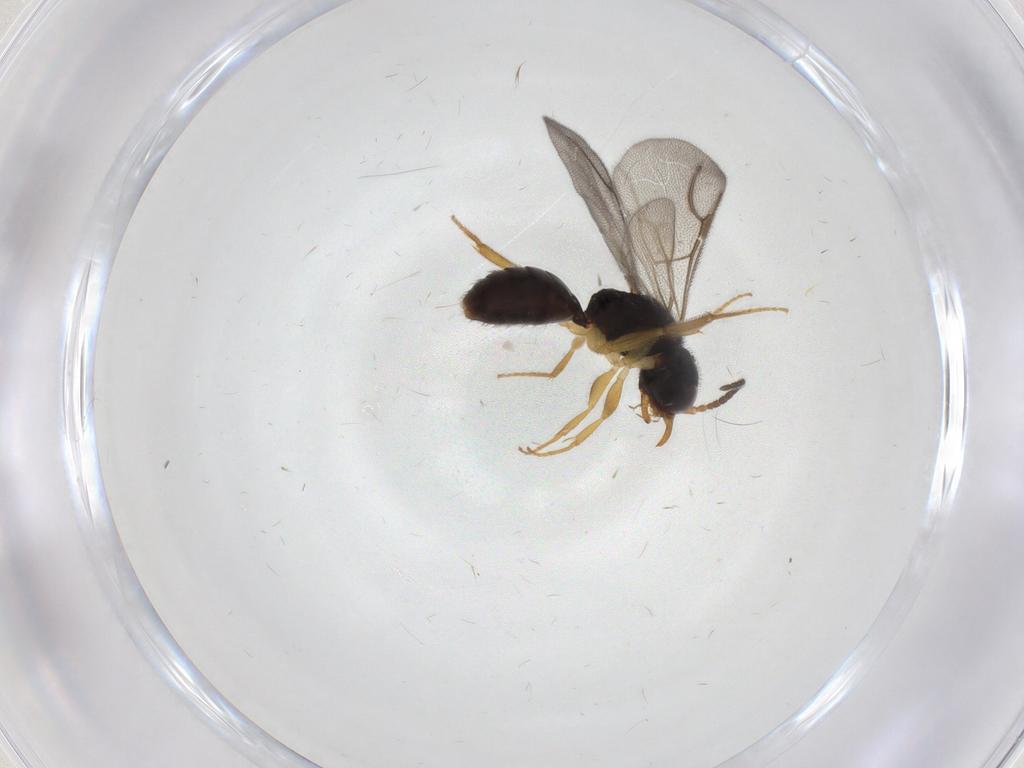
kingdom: Animalia
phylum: Arthropoda
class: Insecta
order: Hymenoptera
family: Bethylidae
